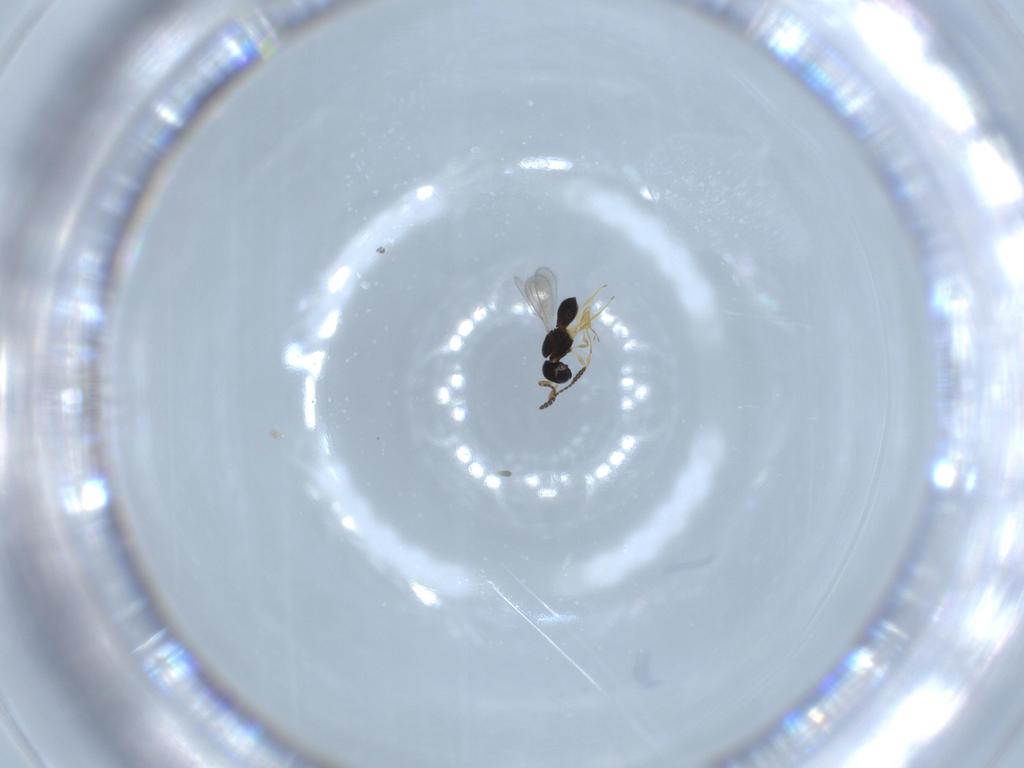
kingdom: Animalia
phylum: Arthropoda
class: Insecta
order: Hymenoptera
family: Scelionidae
